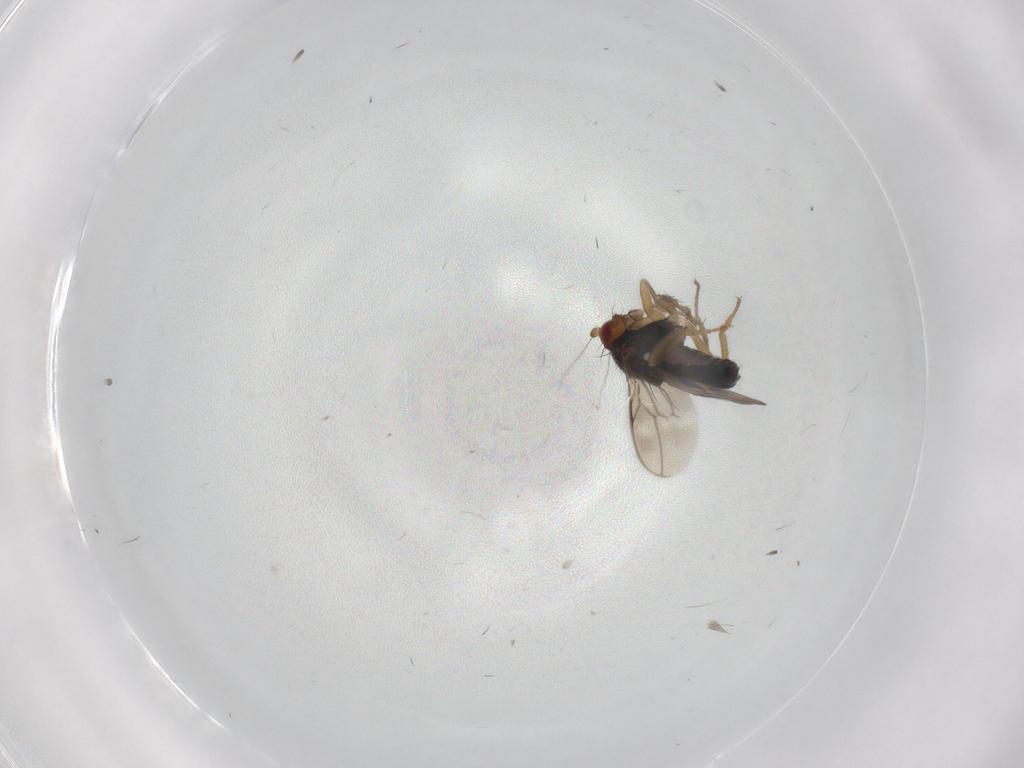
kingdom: Animalia
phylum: Arthropoda
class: Insecta
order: Diptera
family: Sphaeroceridae
